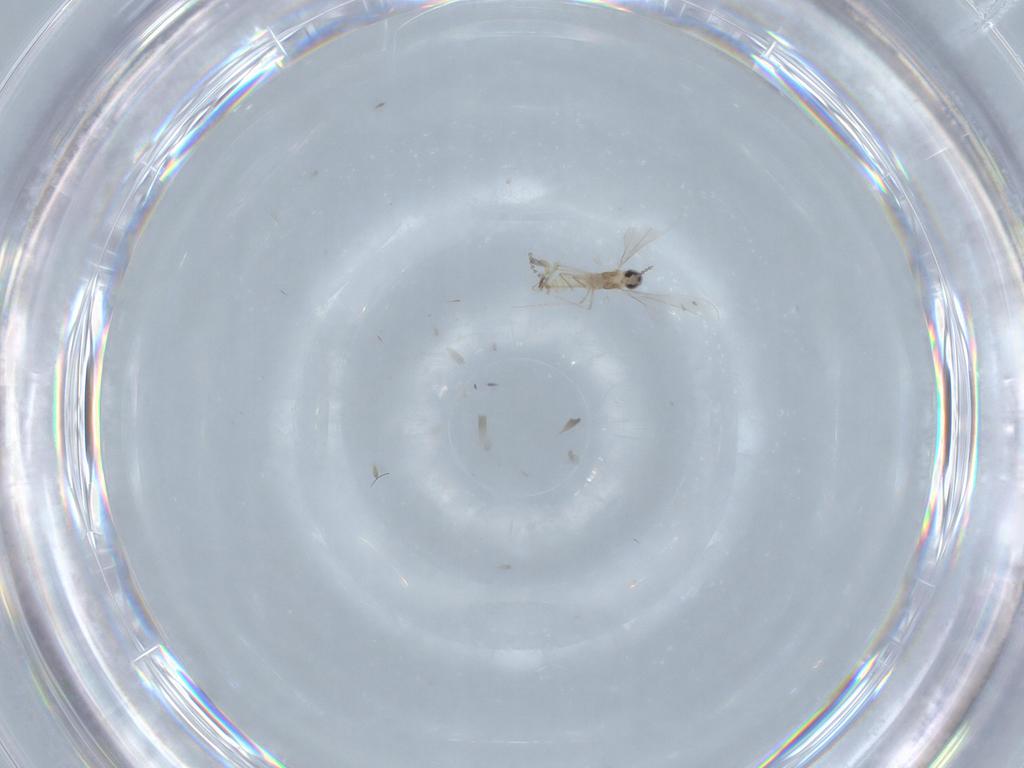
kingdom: Animalia
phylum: Arthropoda
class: Insecta
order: Diptera
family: Cecidomyiidae
